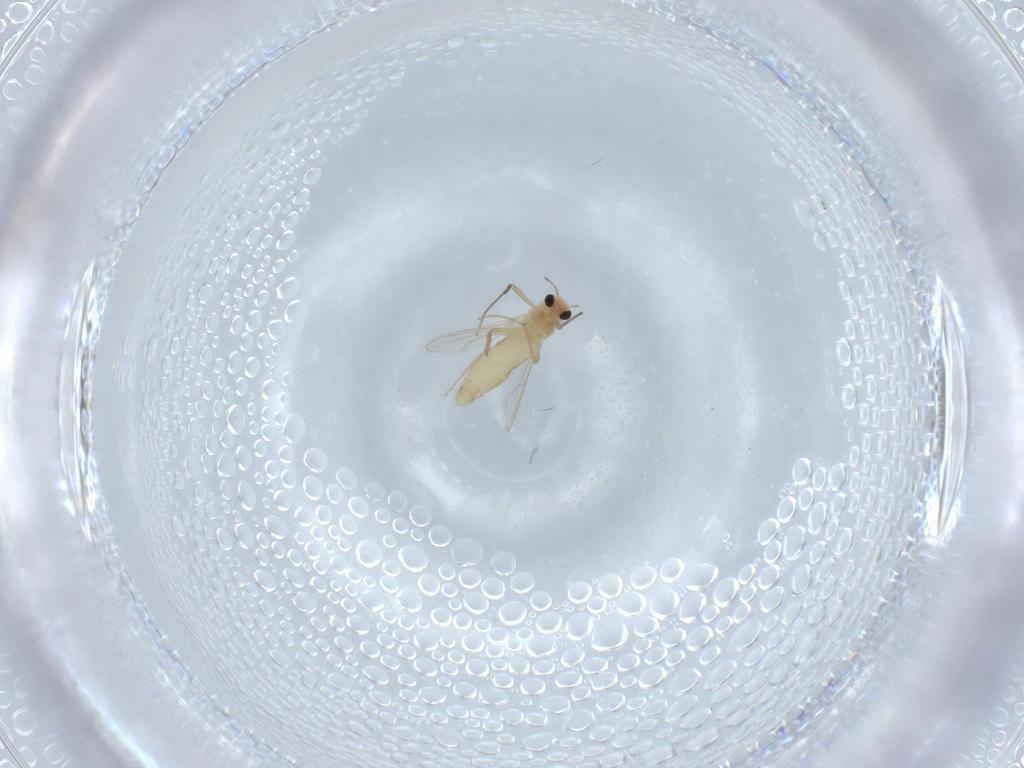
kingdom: Animalia
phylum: Arthropoda
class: Insecta
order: Diptera
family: Chironomidae
